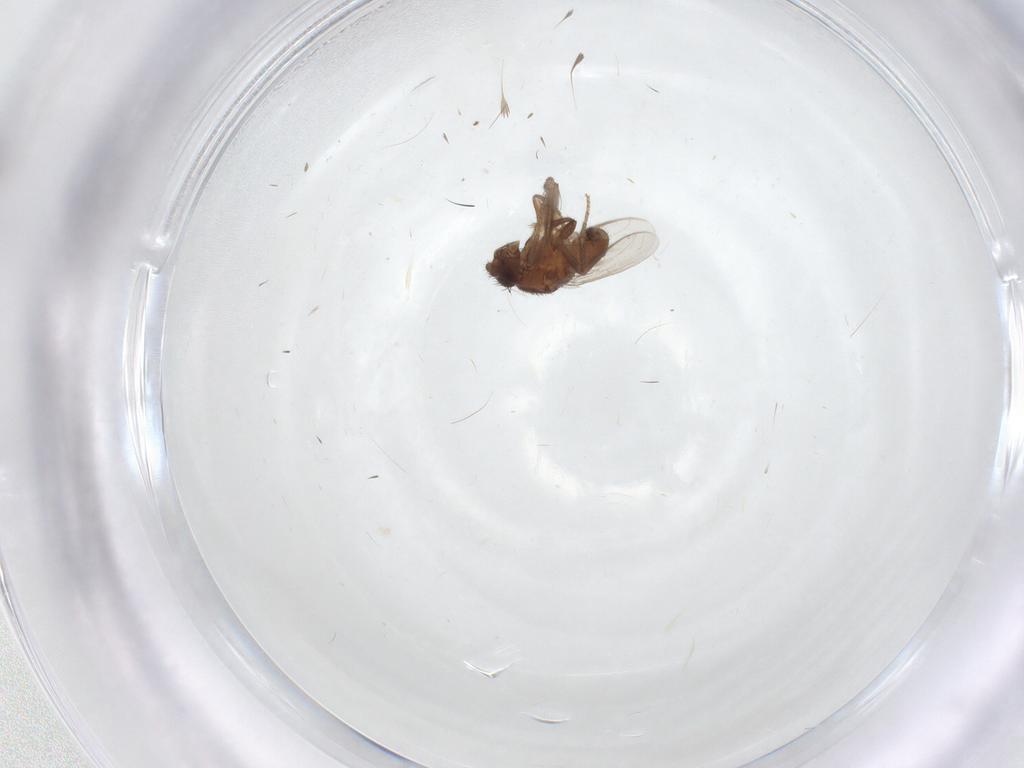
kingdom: Animalia
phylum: Arthropoda
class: Insecta
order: Diptera
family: Sphaeroceridae
